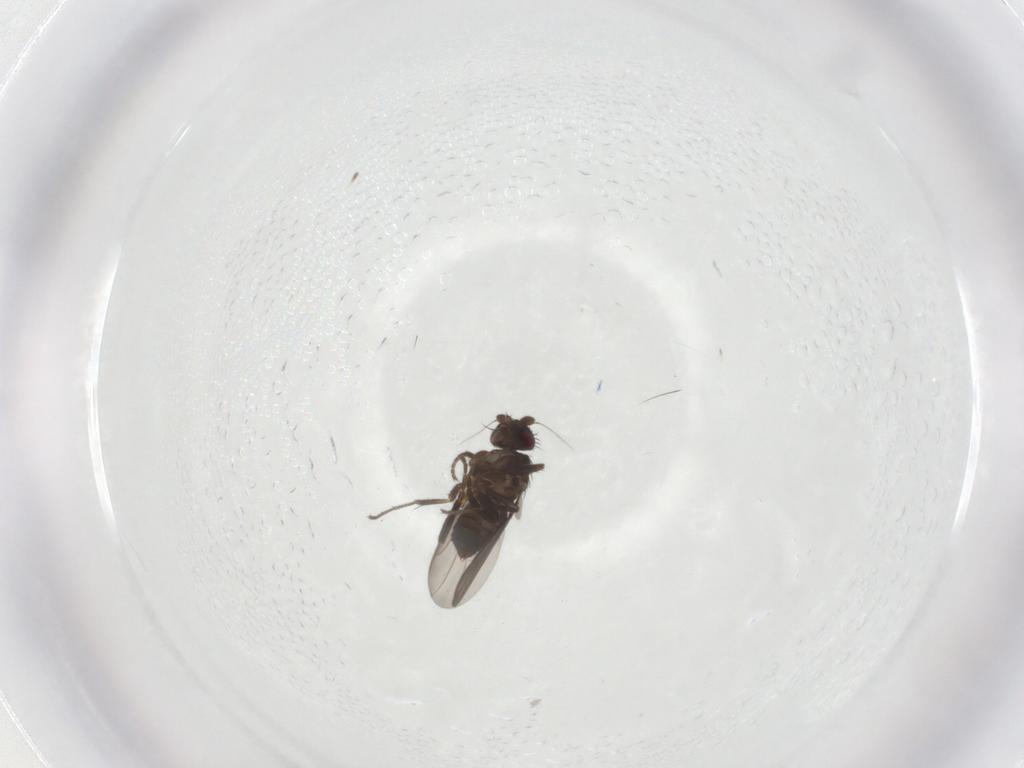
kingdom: Animalia
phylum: Arthropoda
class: Insecta
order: Diptera
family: Sphaeroceridae
